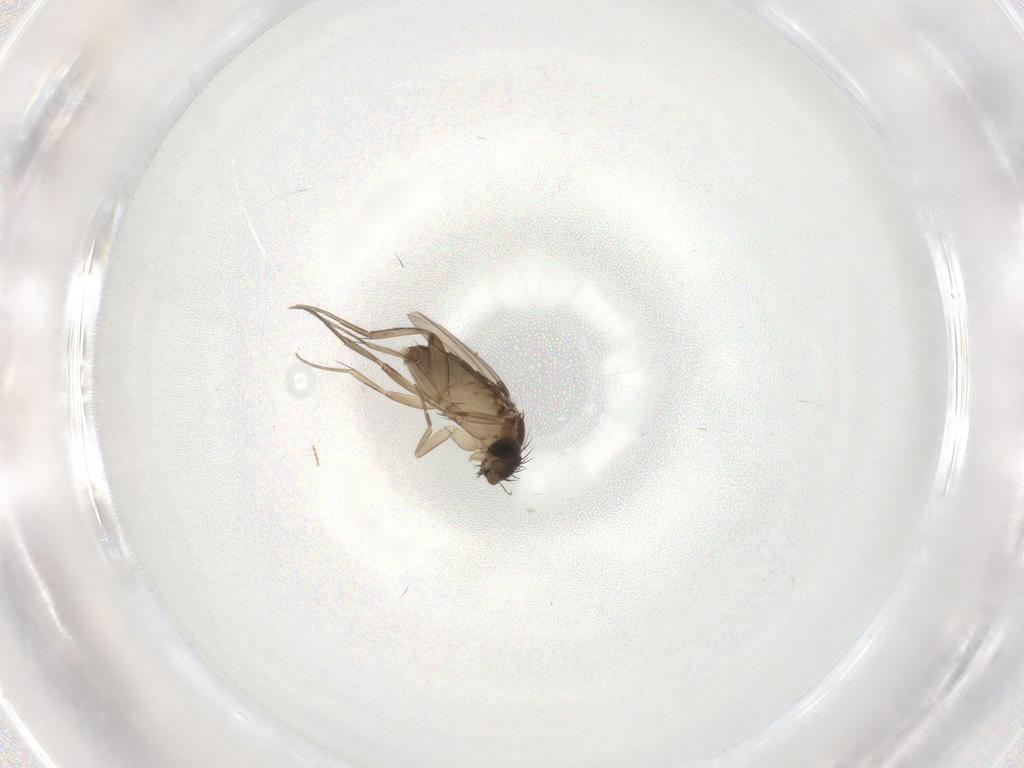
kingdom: Animalia
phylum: Arthropoda
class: Insecta
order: Diptera
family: Phoridae
